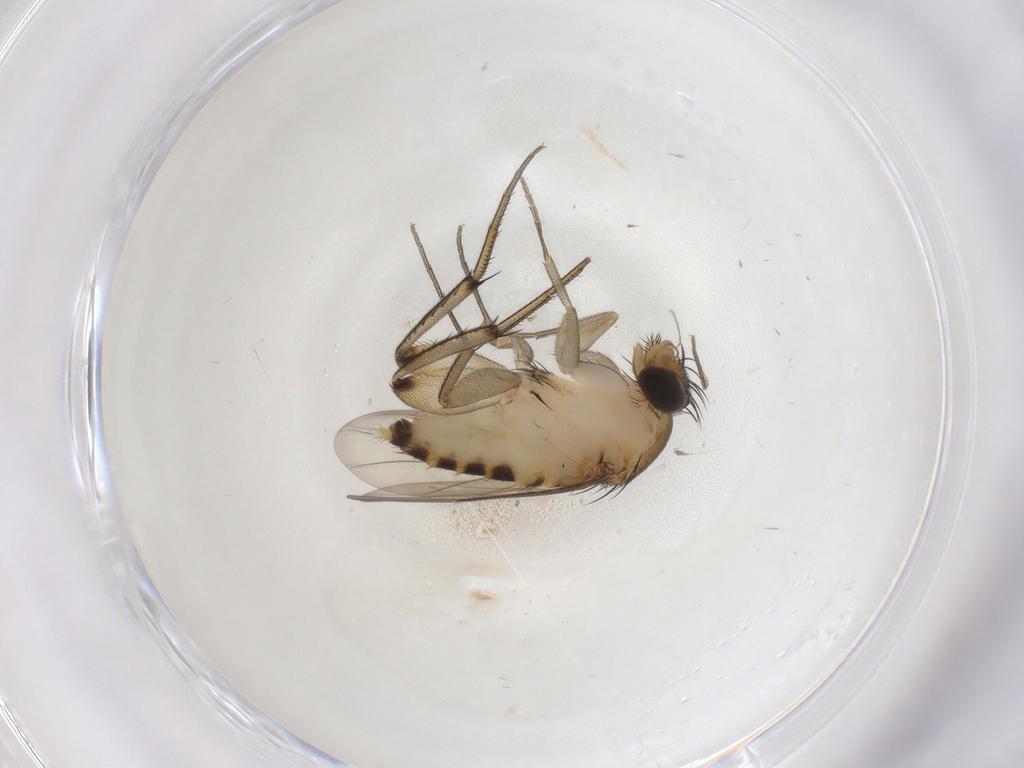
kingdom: Animalia
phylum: Arthropoda
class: Insecta
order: Diptera
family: Phoridae
